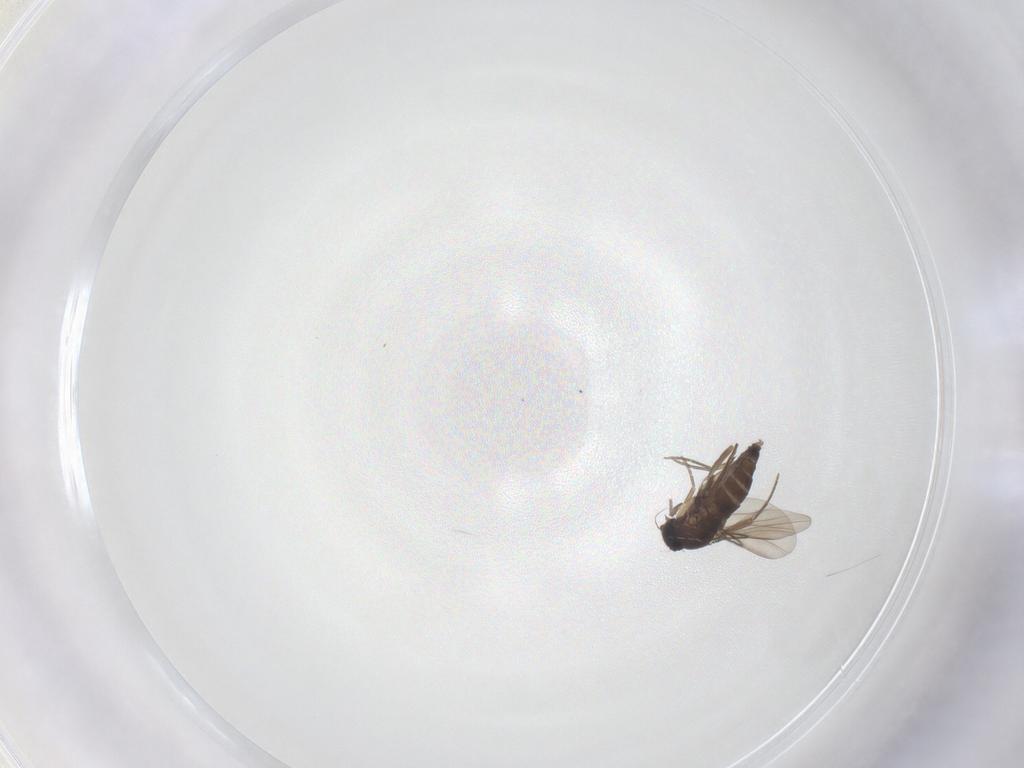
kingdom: Animalia
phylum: Arthropoda
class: Insecta
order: Diptera
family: Phoridae
